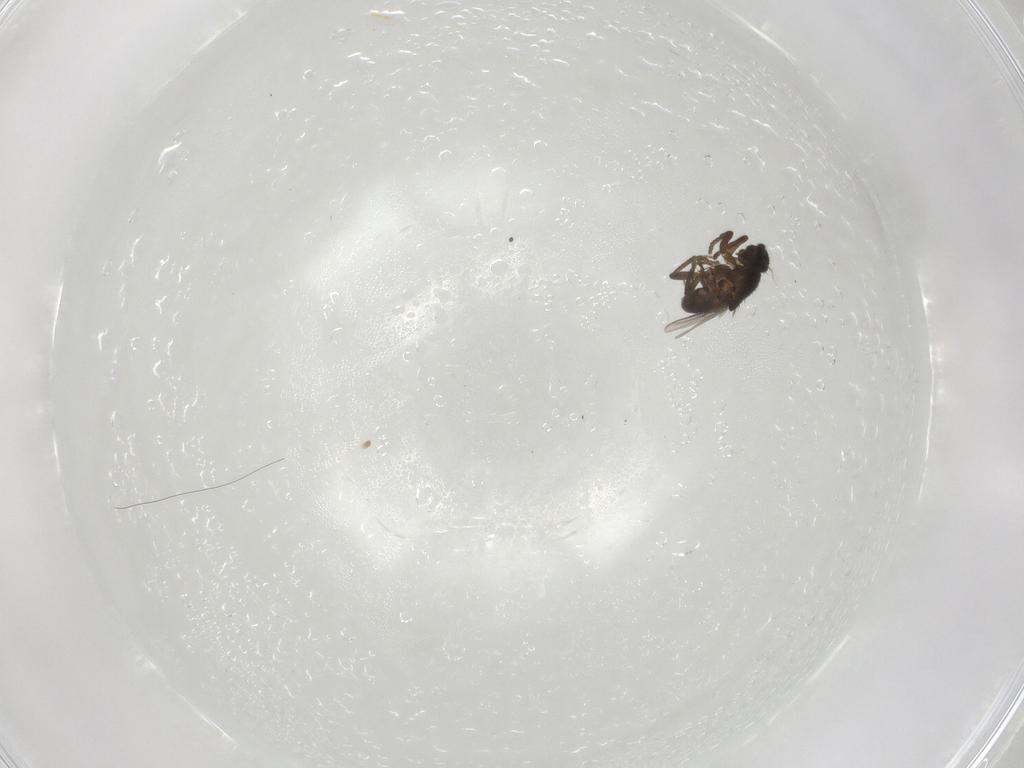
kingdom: Animalia
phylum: Arthropoda
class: Insecta
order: Diptera
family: Sphaeroceridae
